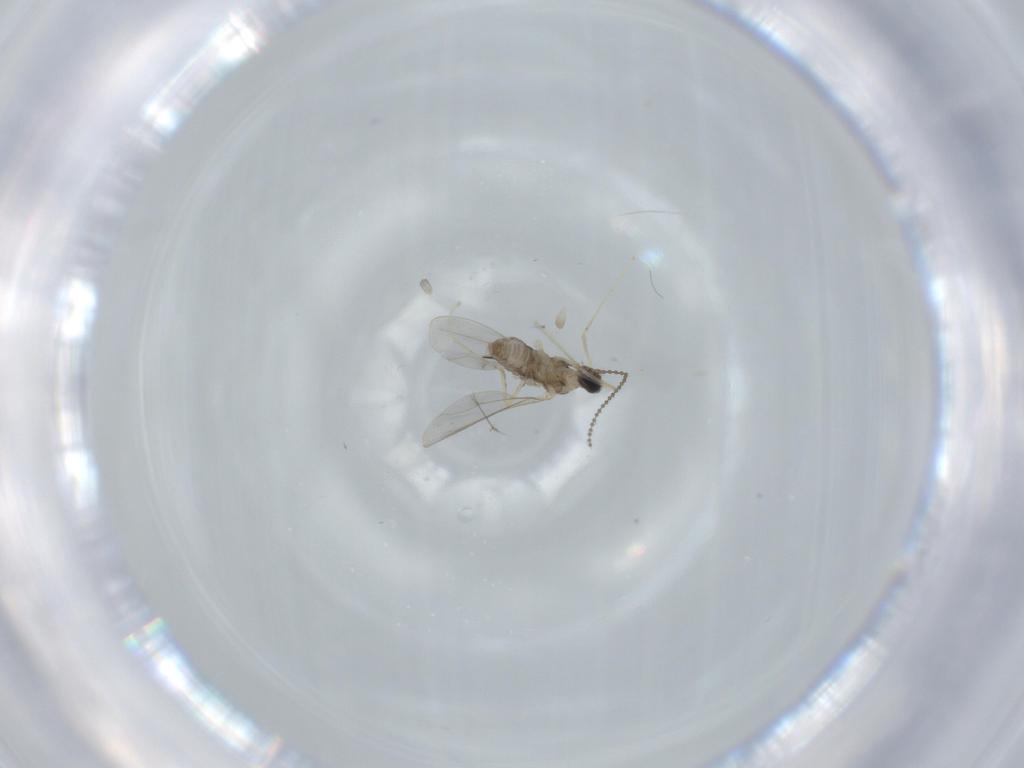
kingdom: Animalia
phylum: Arthropoda
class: Insecta
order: Diptera
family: Cecidomyiidae
